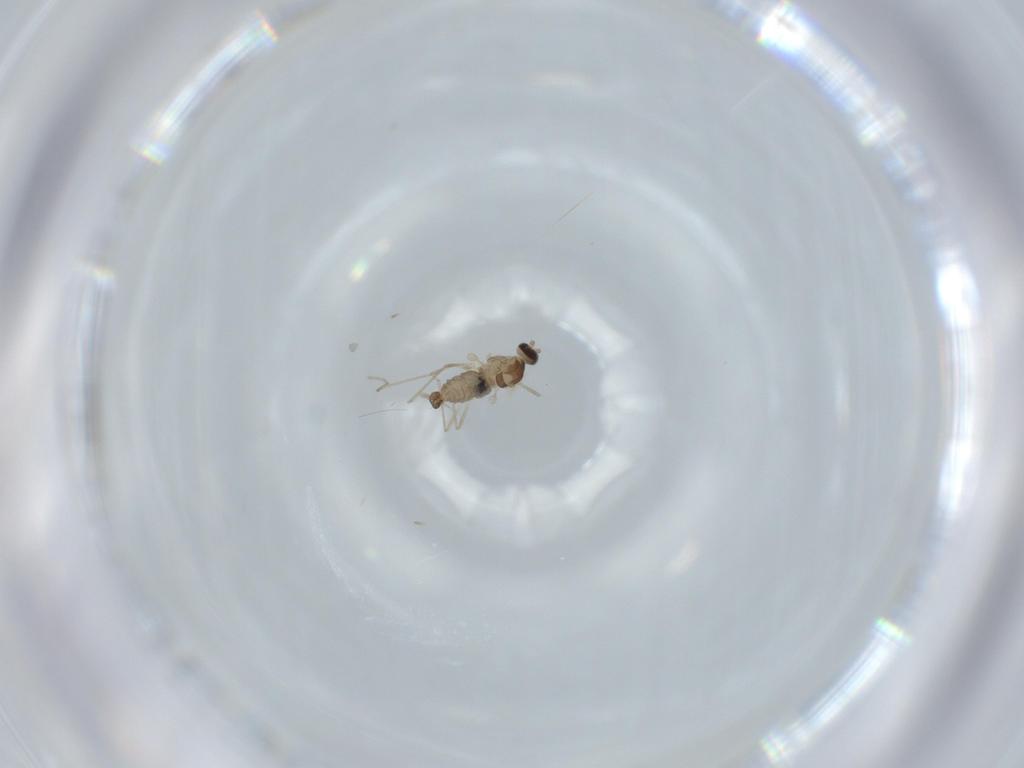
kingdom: Animalia
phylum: Arthropoda
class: Insecta
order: Diptera
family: Cecidomyiidae
